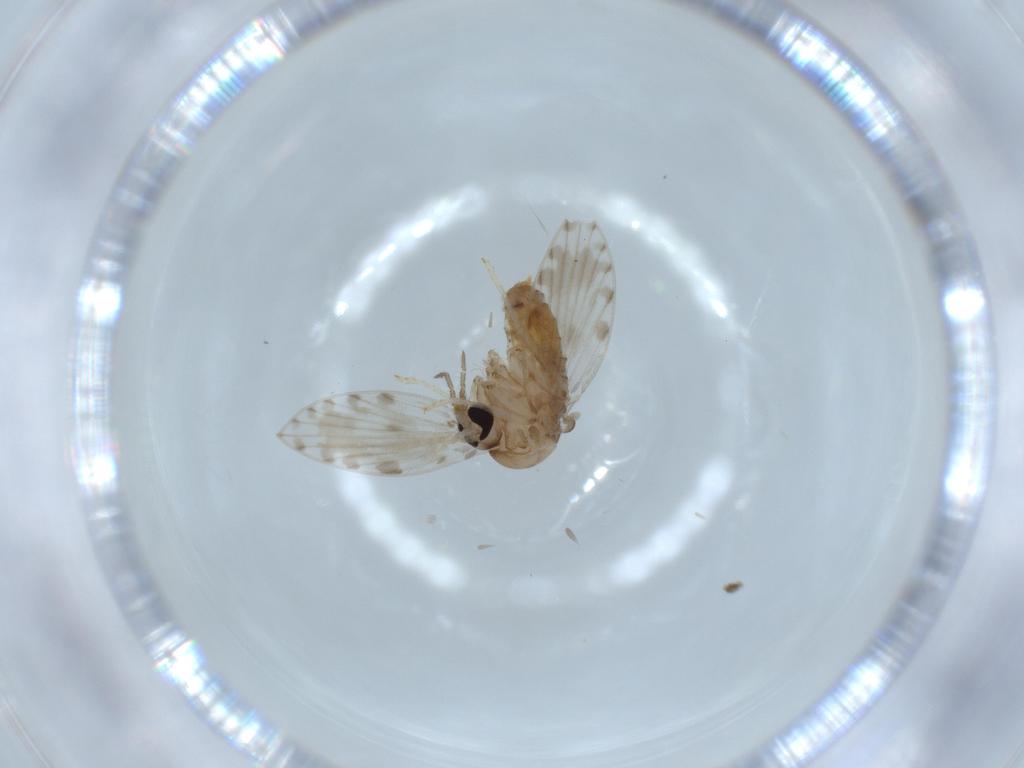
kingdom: Animalia
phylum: Arthropoda
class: Insecta
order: Diptera
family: Psychodidae
